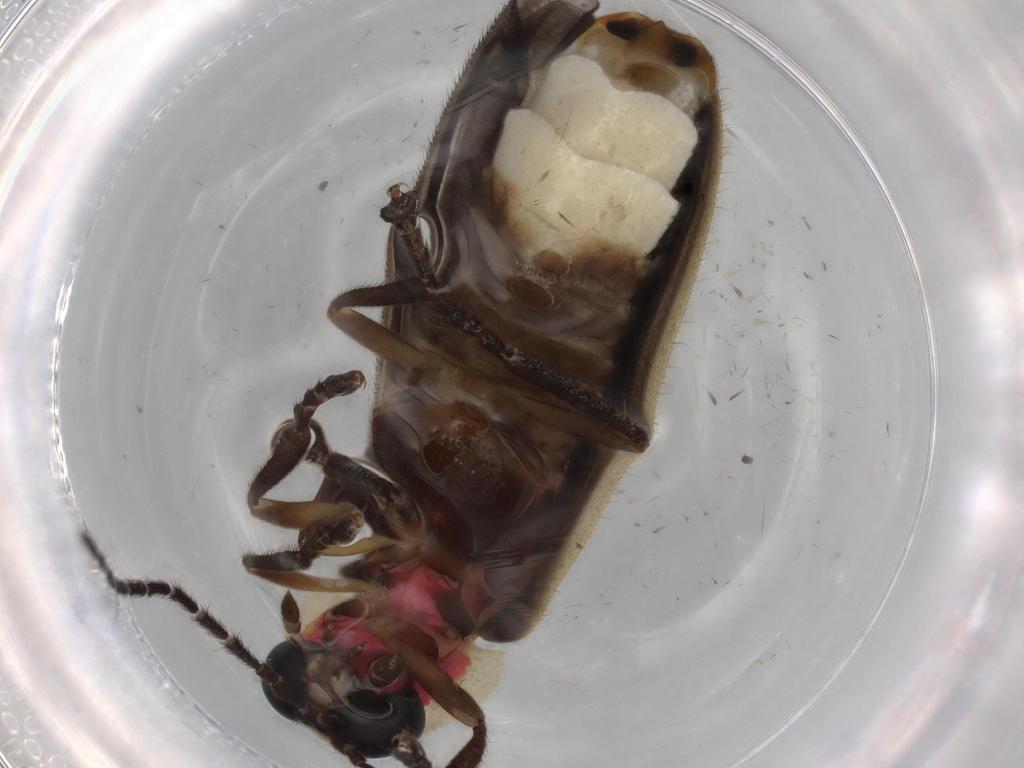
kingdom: Animalia
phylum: Arthropoda
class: Insecta
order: Coleoptera
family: Lampyridae
